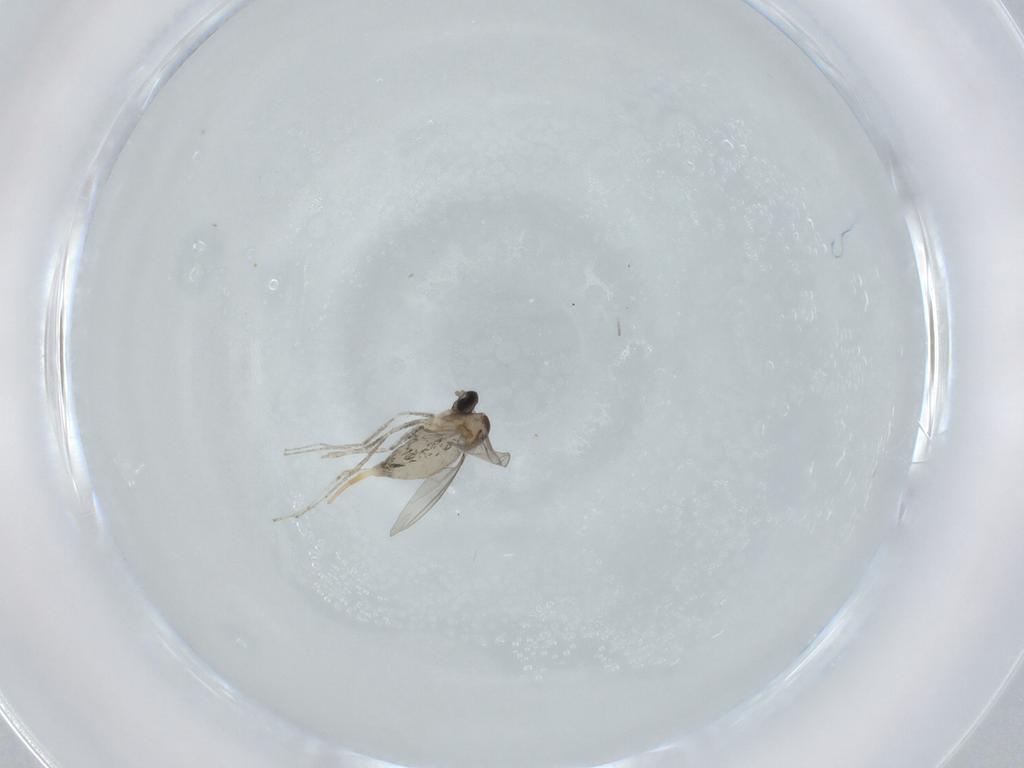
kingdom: Animalia
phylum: Arthropoda
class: Insecta
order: Diptera
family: Cecidomyiidae
